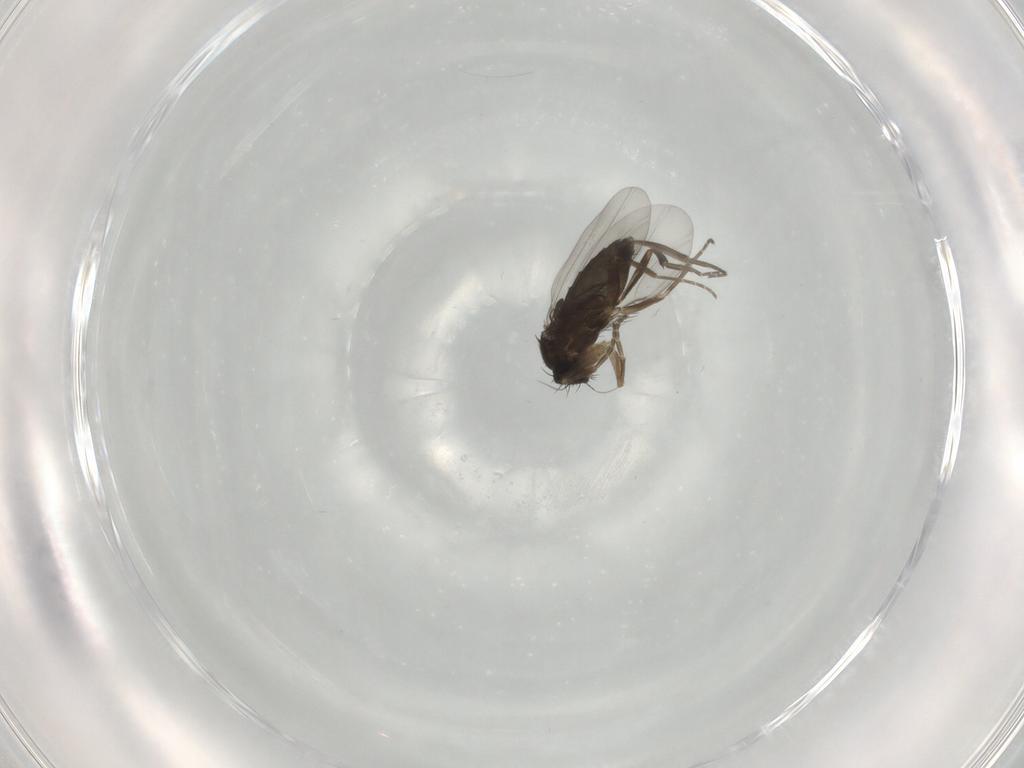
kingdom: Animalia
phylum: Arthropoda
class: Insecta
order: Diptera
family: Phoridae
